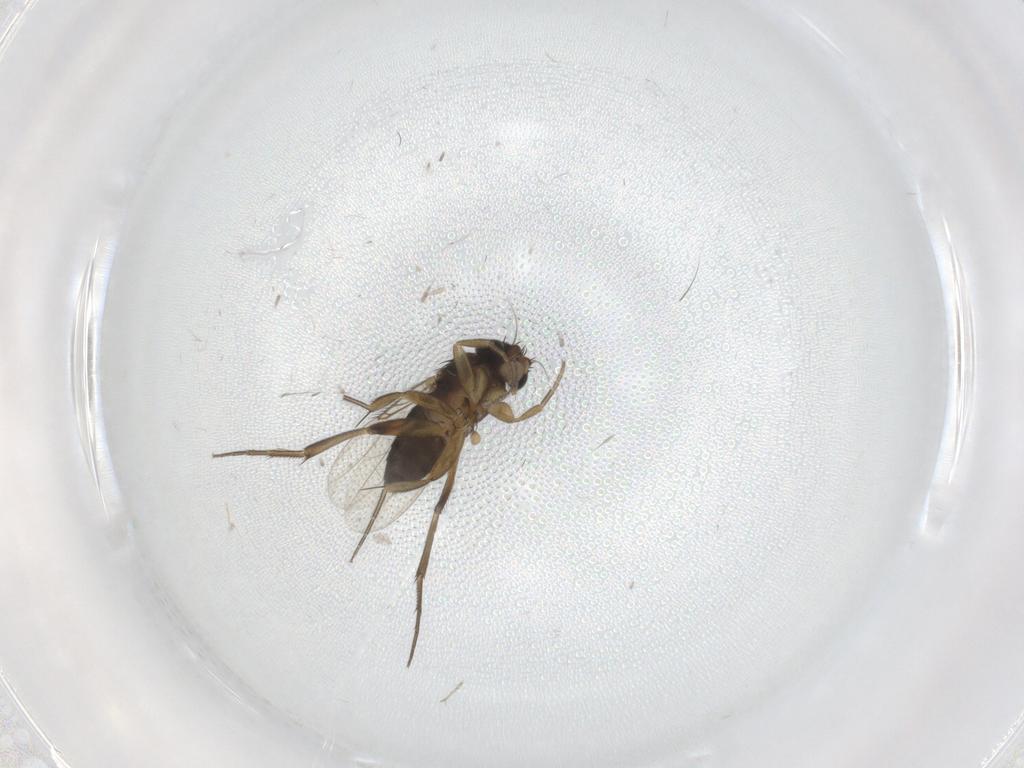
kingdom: Animalia
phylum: Arthropoda
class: Insecta
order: Diptera
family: Phoridae
